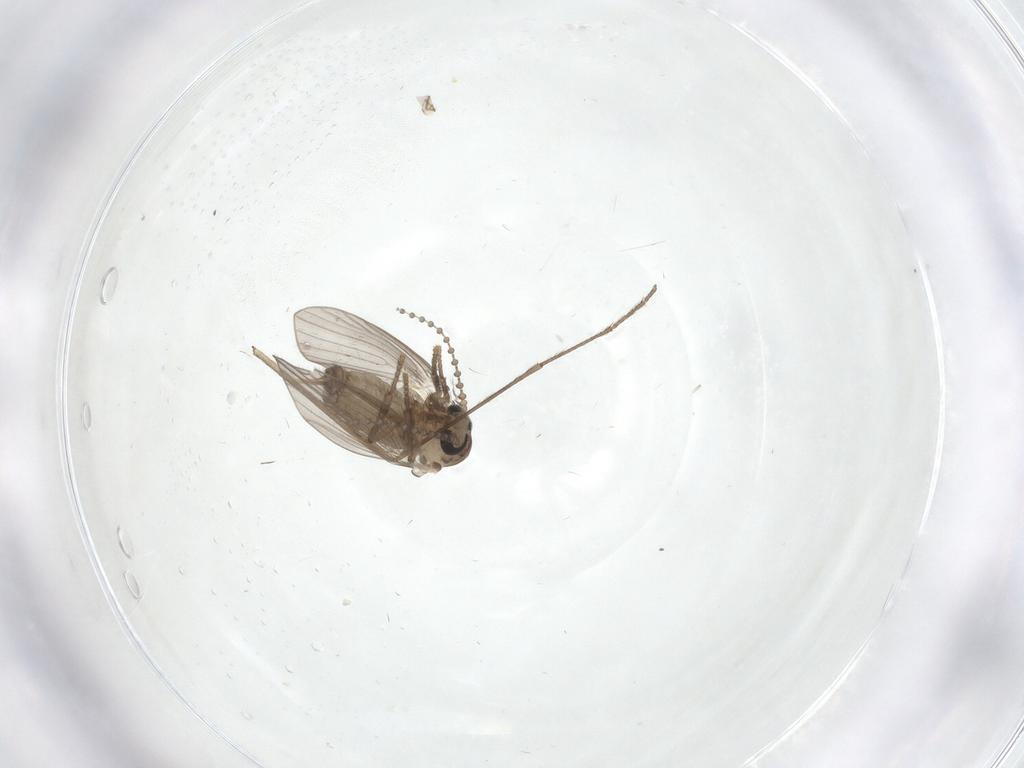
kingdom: Animalia
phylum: Arthropoda
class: Insecta
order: Diptera
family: Psychodidae
